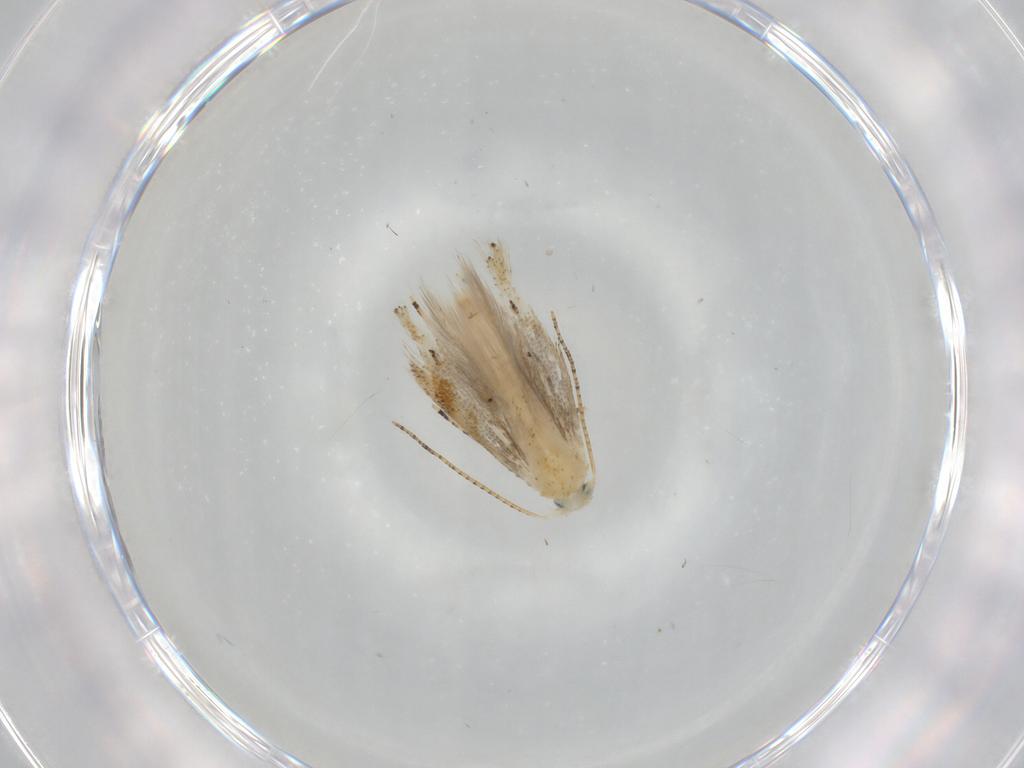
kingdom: Animalia
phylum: Arthropoda
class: Insecta
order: Lepidoptera
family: Bucculatricidae
